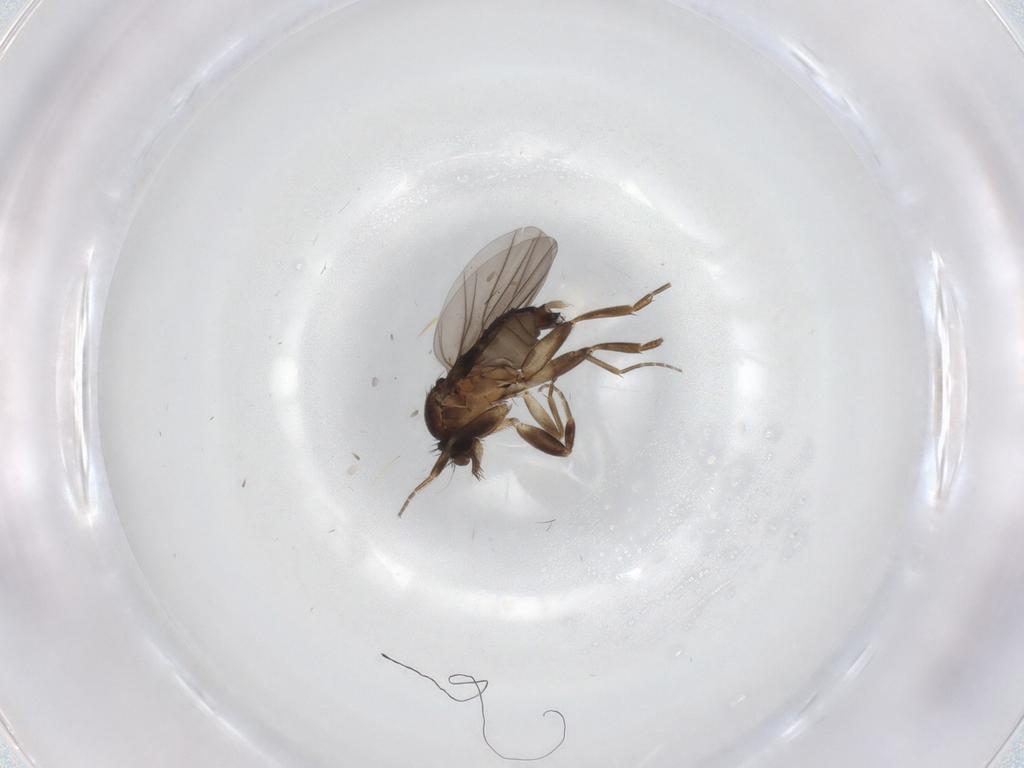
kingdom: Animalia
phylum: Arthropoda
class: Insecta
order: Diptera
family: Phoridae
